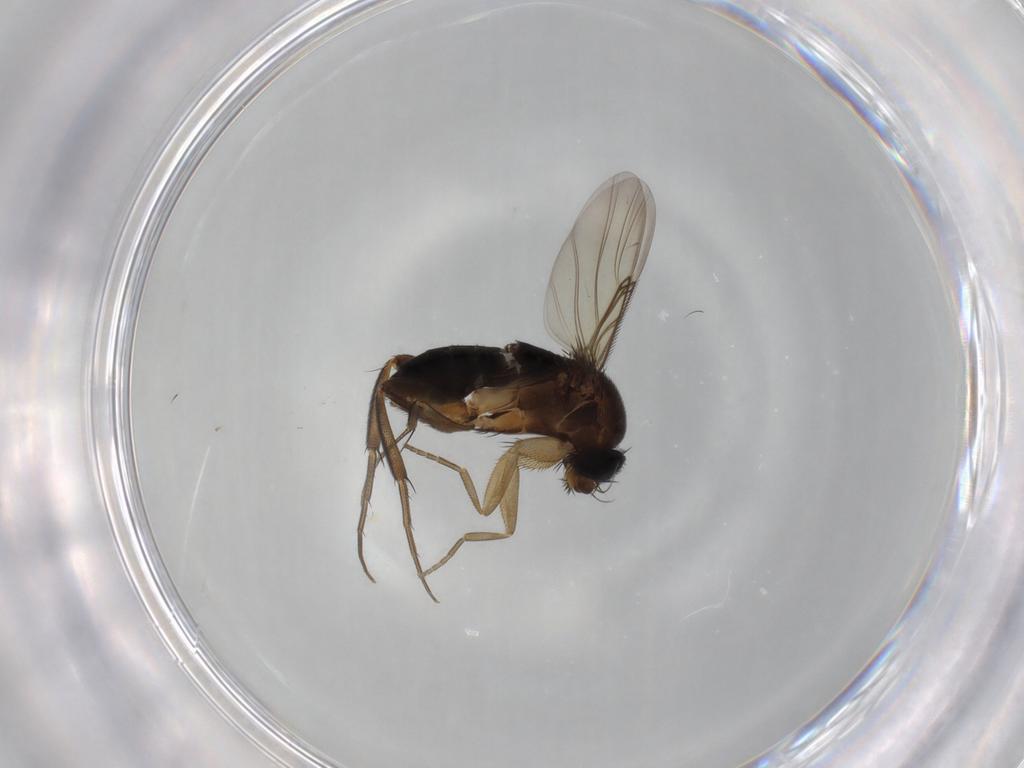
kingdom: Animalia
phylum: Arthropoda
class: Insecta
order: Diptera
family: Phoridae
